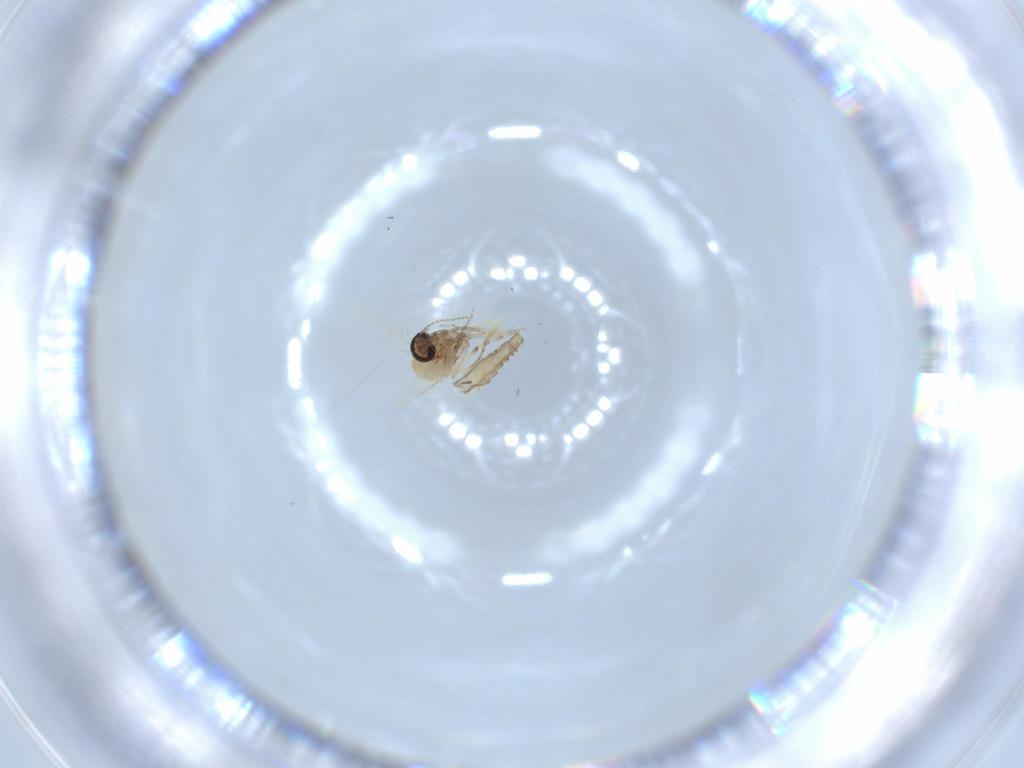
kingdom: Animalia
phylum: Arthropoda
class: Insecta
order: Diptera
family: Ceratopogonidae
